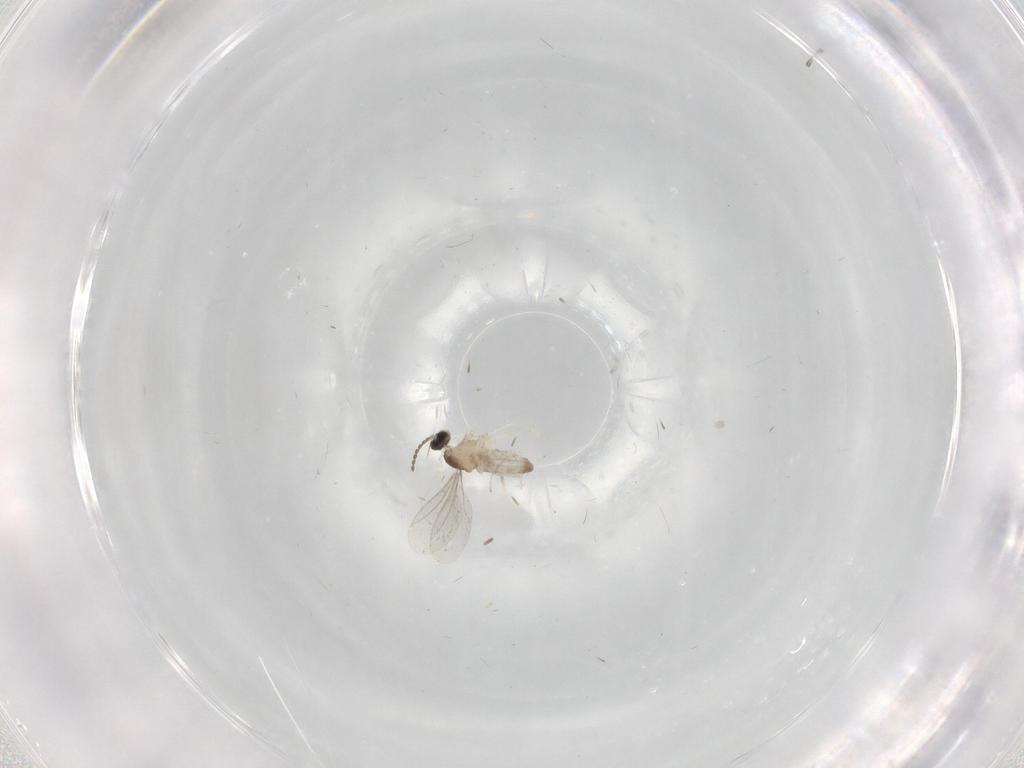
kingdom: Animalia
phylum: Arthropoda
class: Insecta
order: Diptera
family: Cecidomyiidae
